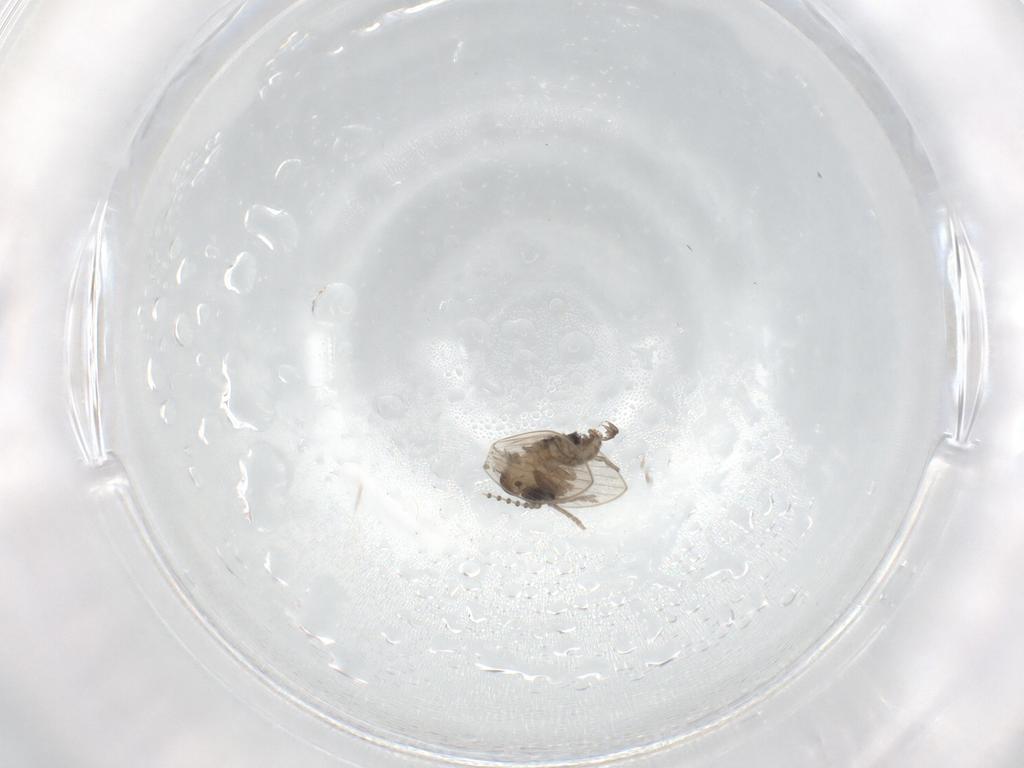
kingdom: Animalia
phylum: Arthropoda
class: Insecta
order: Diptera
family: Psychodidae
